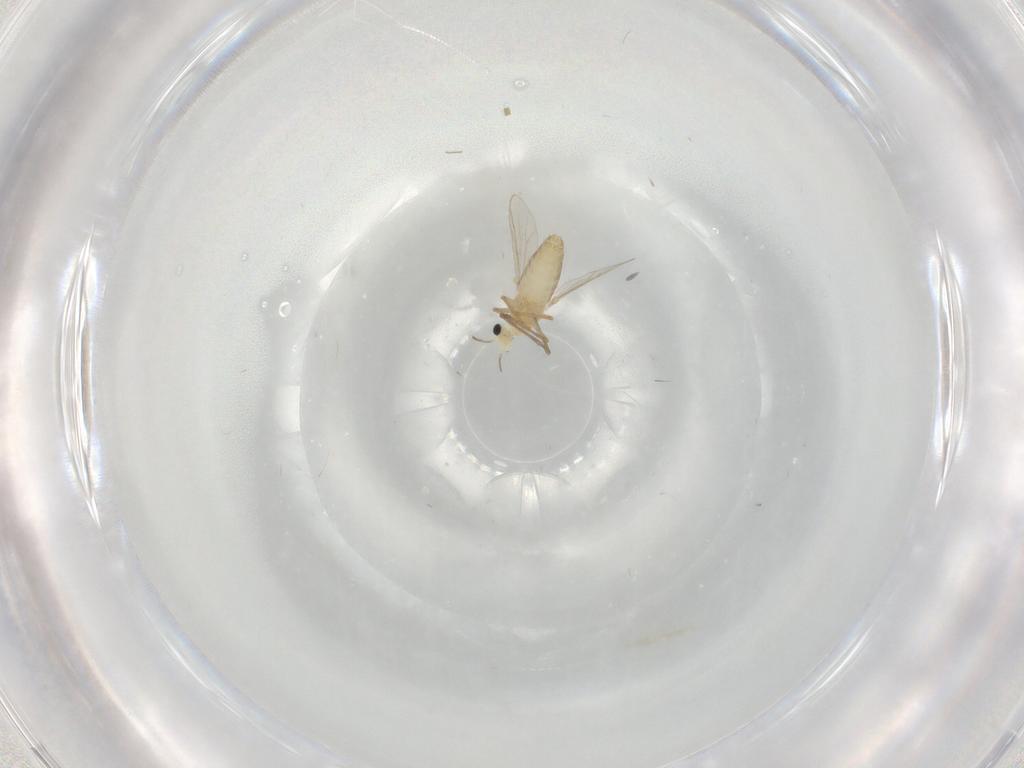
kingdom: Animalia
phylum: Arthropoda
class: Insecta
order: Diptera
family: Chironomidae
